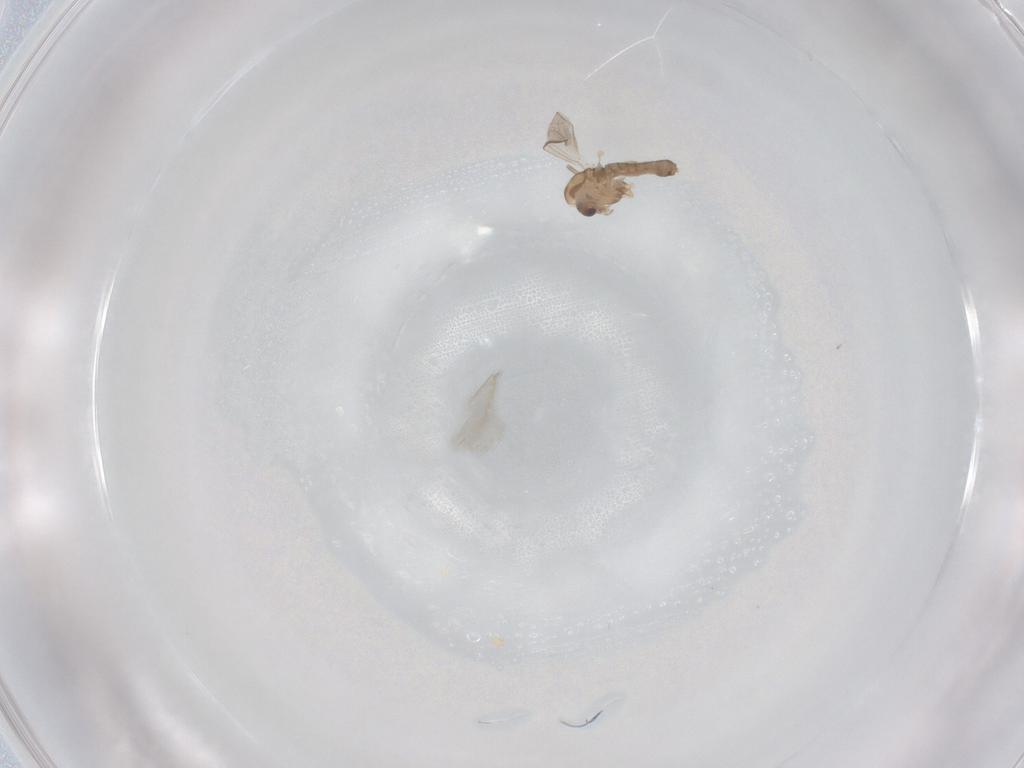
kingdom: Animalia
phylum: Arthropoda
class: Insecta
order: Diptera
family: Chironomidae
